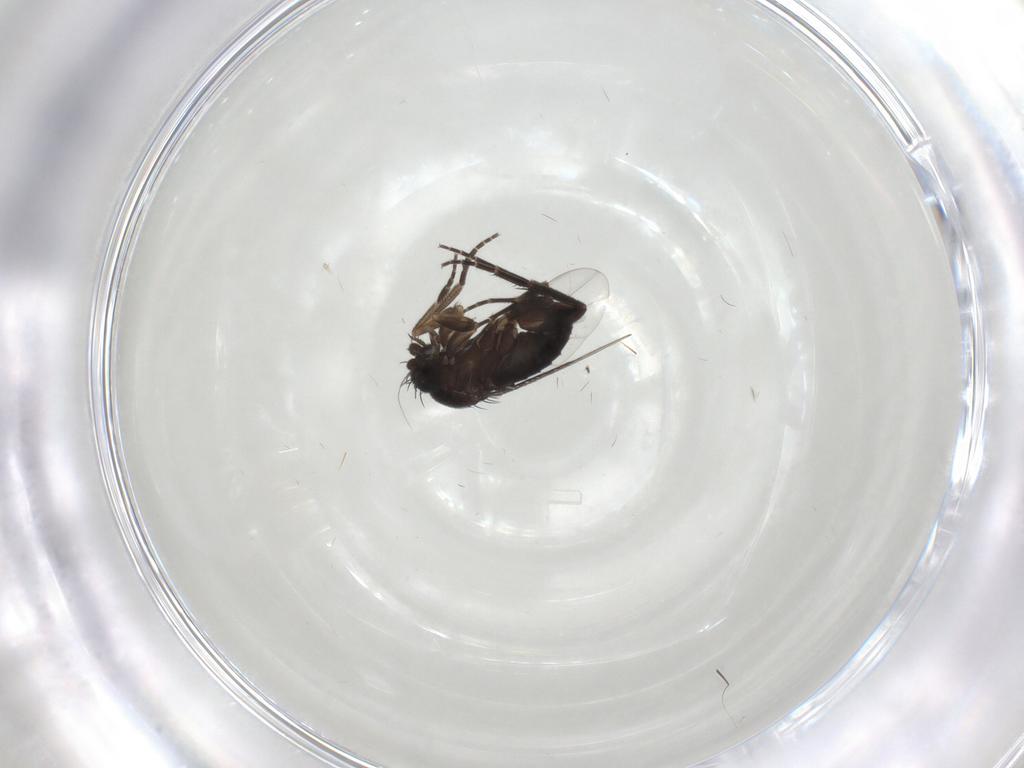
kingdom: Animalia
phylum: Arthropoda
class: Insecta
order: Diptera
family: Phoridae
